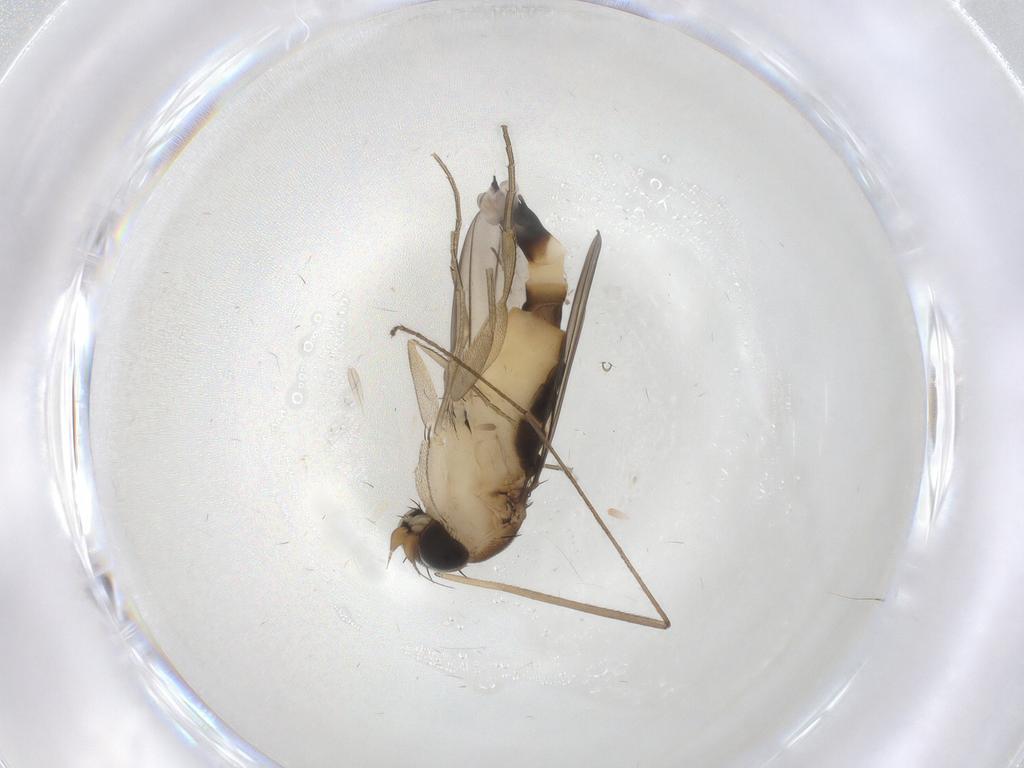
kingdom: Animalia
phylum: Arthropoda
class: Insecta
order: Diptera
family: Phoridae
